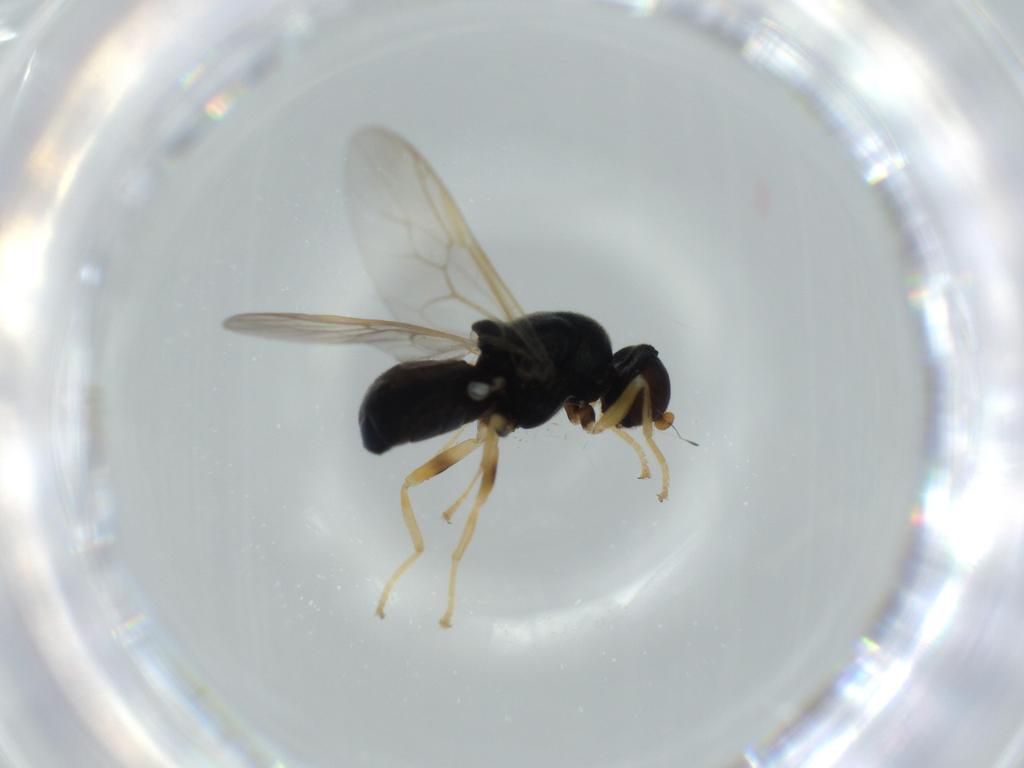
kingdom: Animalia
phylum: Arthropoda
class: Insecta
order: Diptera
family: Stratiomyidae
